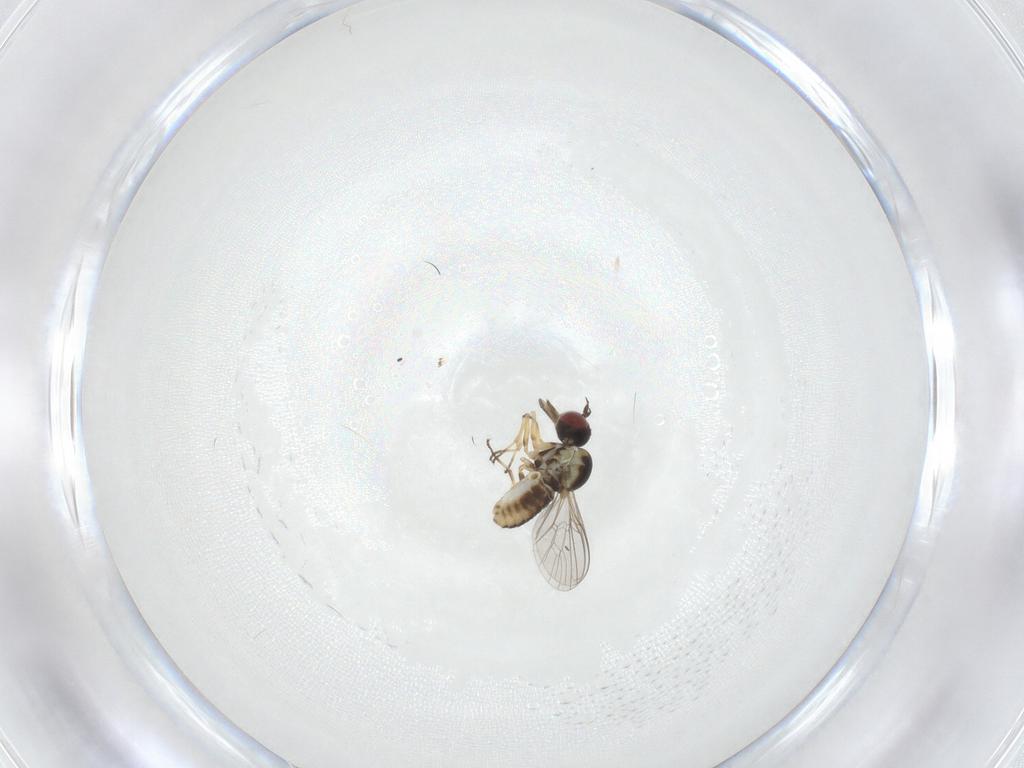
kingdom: Animalia
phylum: Arthropoda
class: Insecta
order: Diptera
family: Mythicomyiidae
